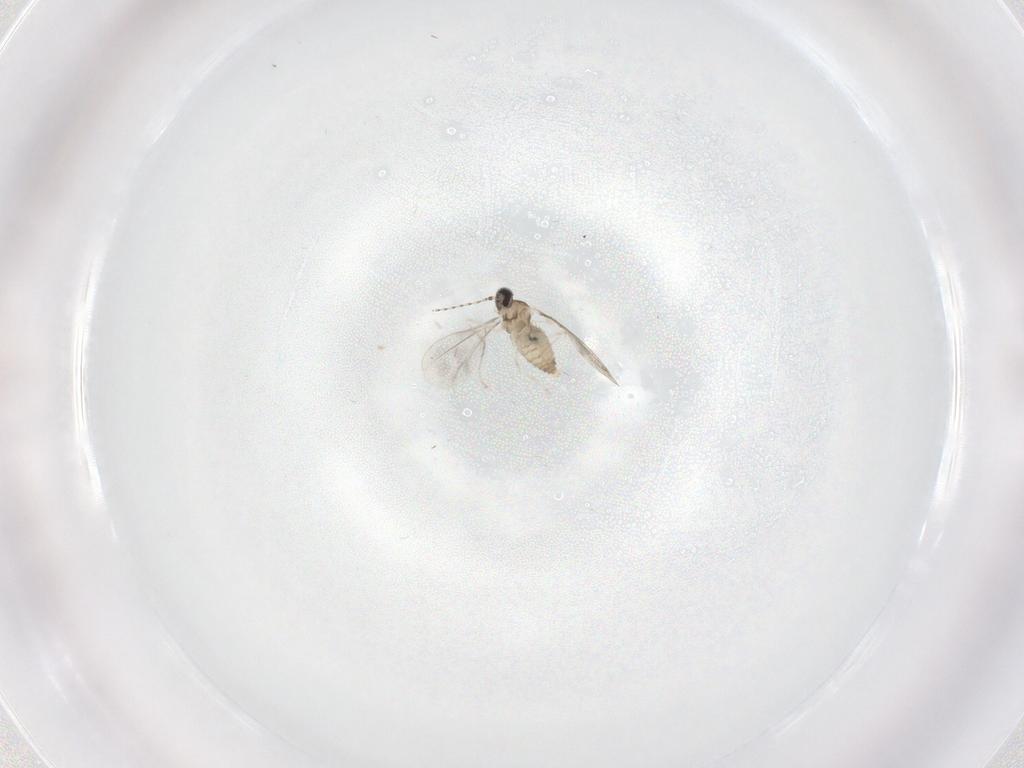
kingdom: Animalia
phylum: Arthropoda
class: Insecta
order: Diptera
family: Cecidomyiidae
